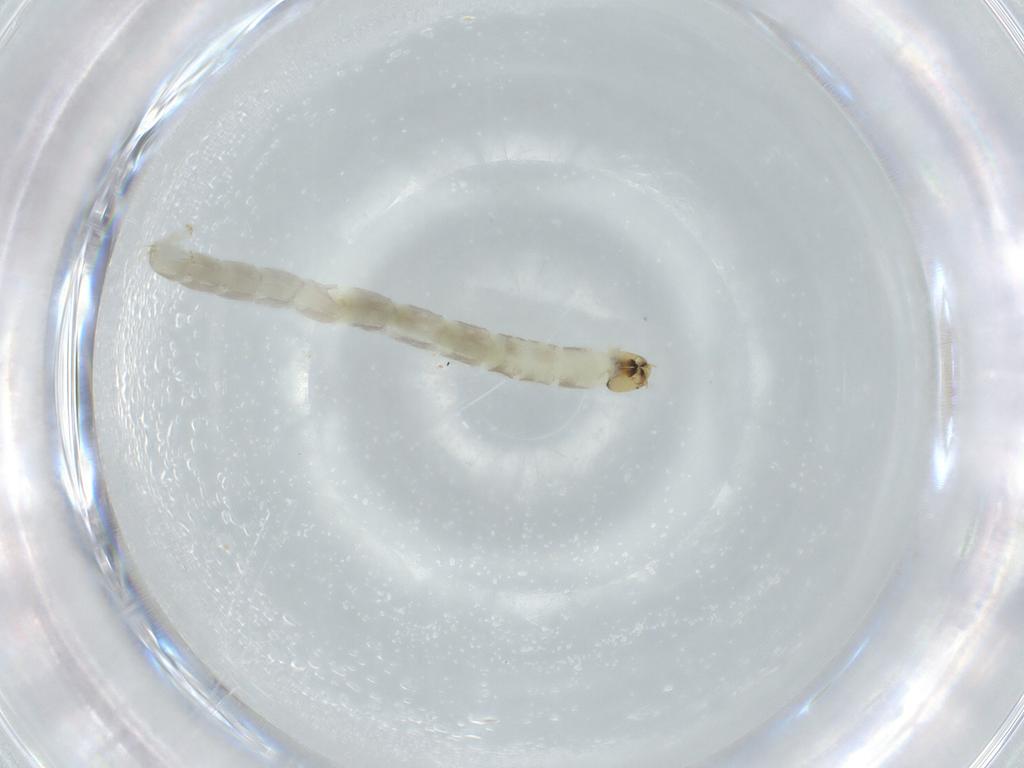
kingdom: Animalia
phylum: Arthropoda
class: Insecta
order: Diptera
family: Chironomidae
